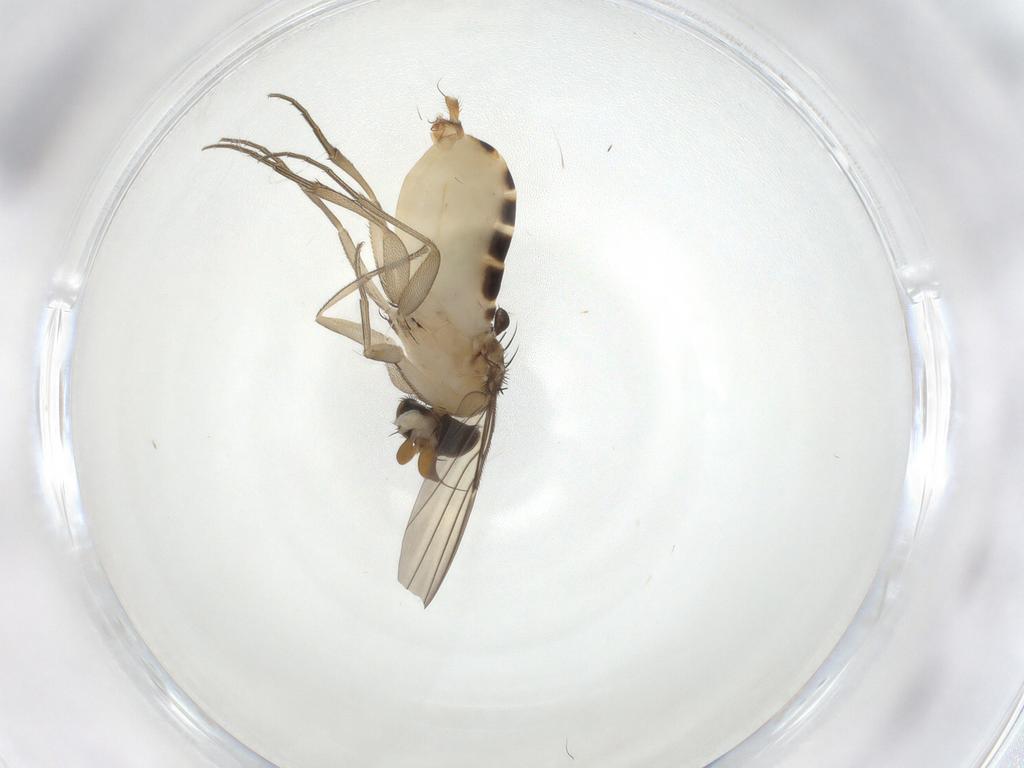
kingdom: Animalia
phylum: Arthropoda
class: Insecta
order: Diptera
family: Phoridae
